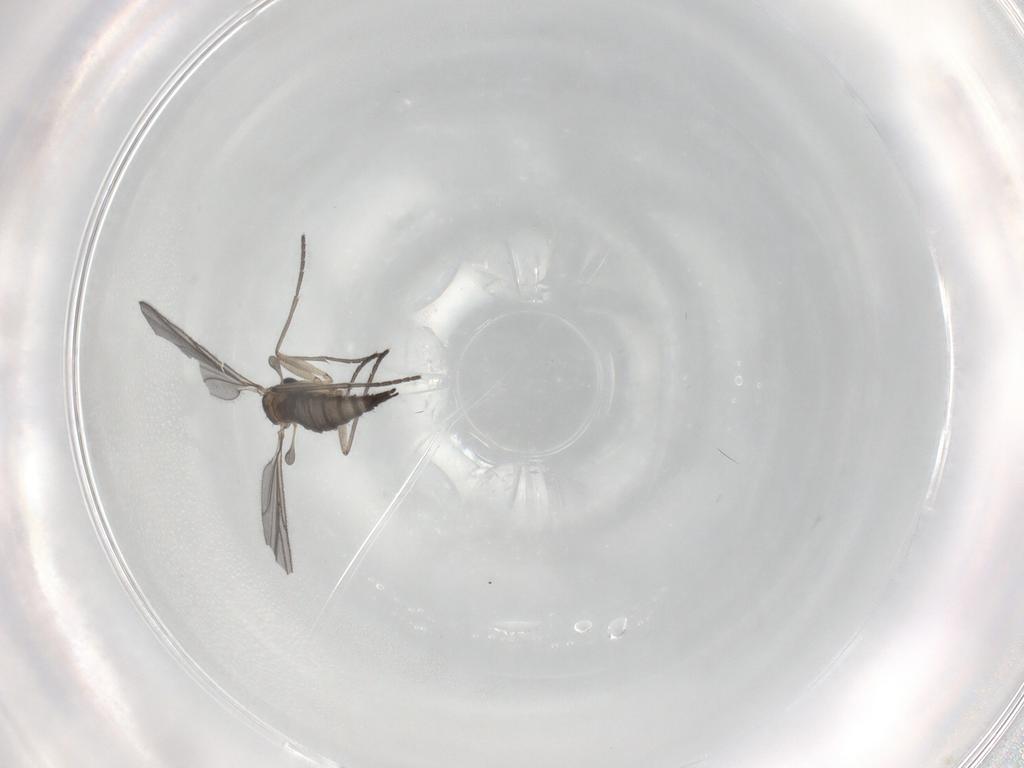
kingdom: Animalia
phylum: Arthropoda
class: Insecta
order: Diptera
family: Sciaridae
